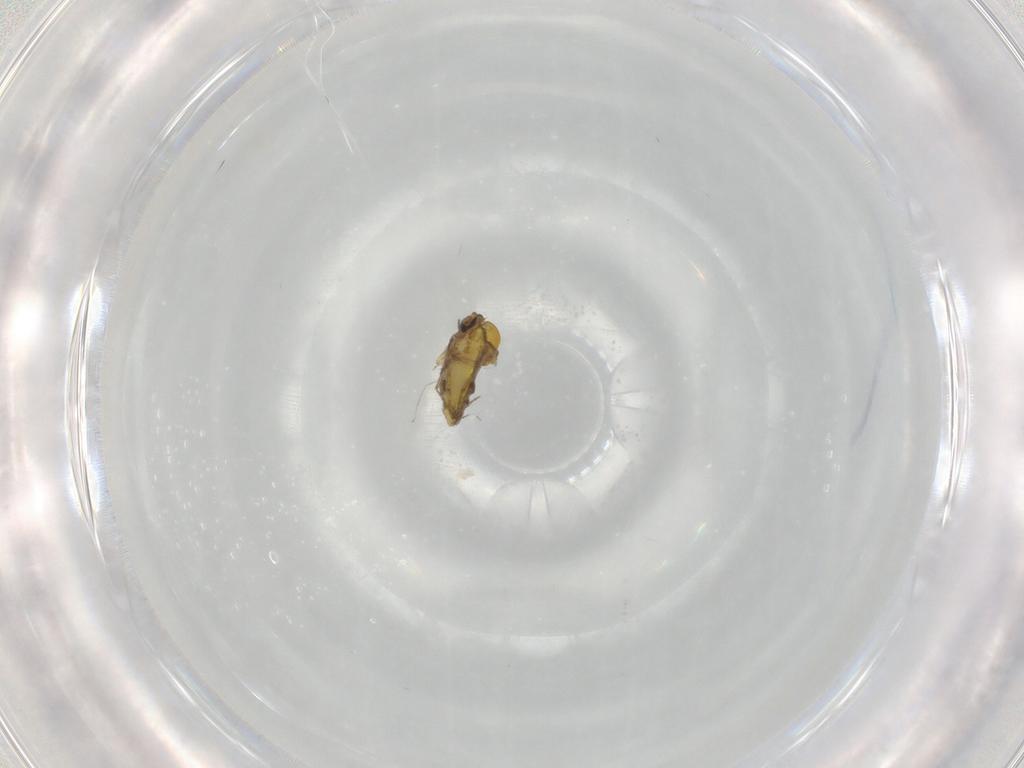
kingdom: Animalia
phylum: Arthropoda
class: Insecta
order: Diptera
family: Ceratopogonidae
